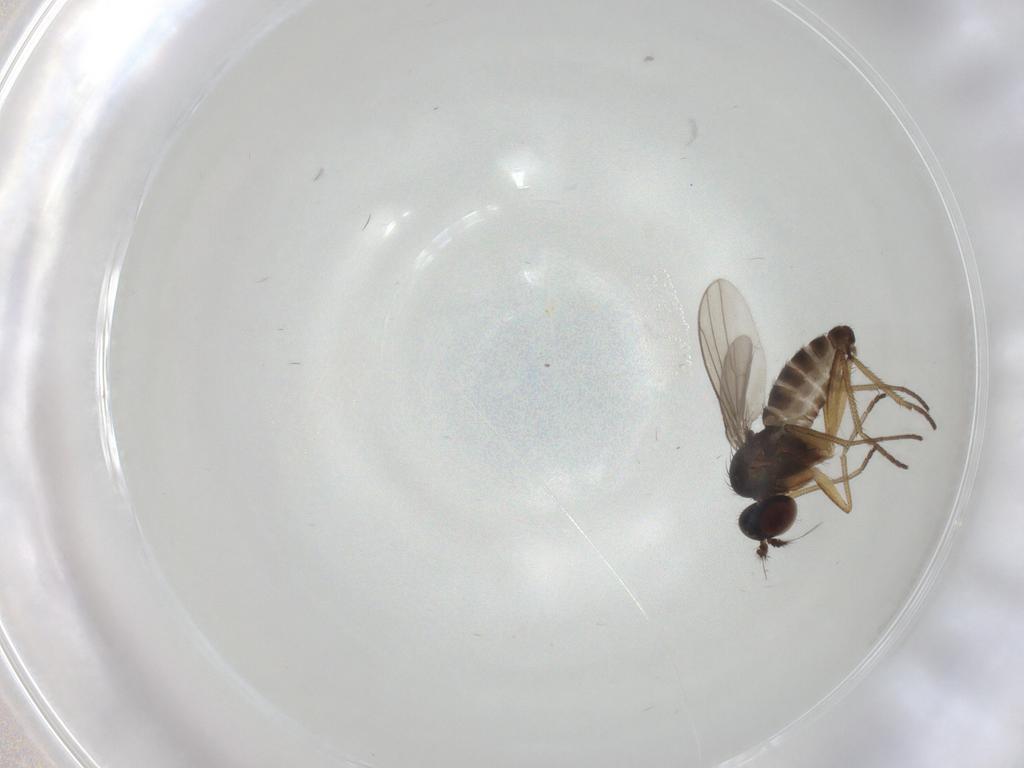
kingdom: Animalia
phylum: Arthropoda
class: Insecta
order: Diptera
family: Dolichopodidae
